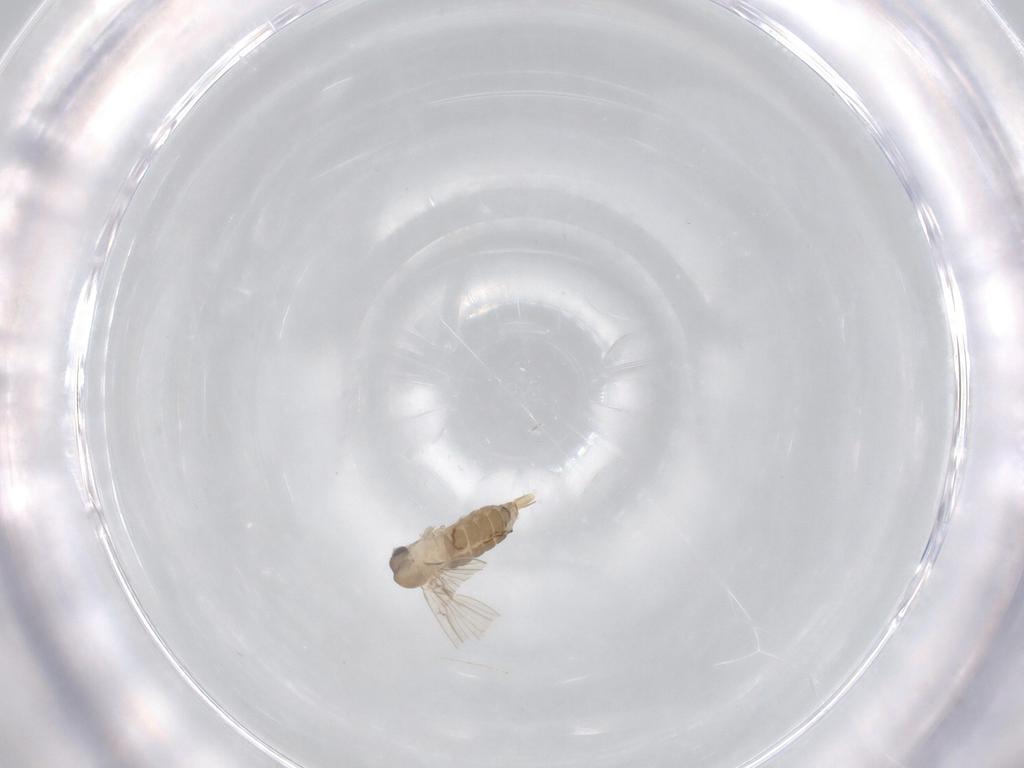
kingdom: Animalia
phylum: Arthropoda
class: Insecta
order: Diptera
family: Psychodidae
